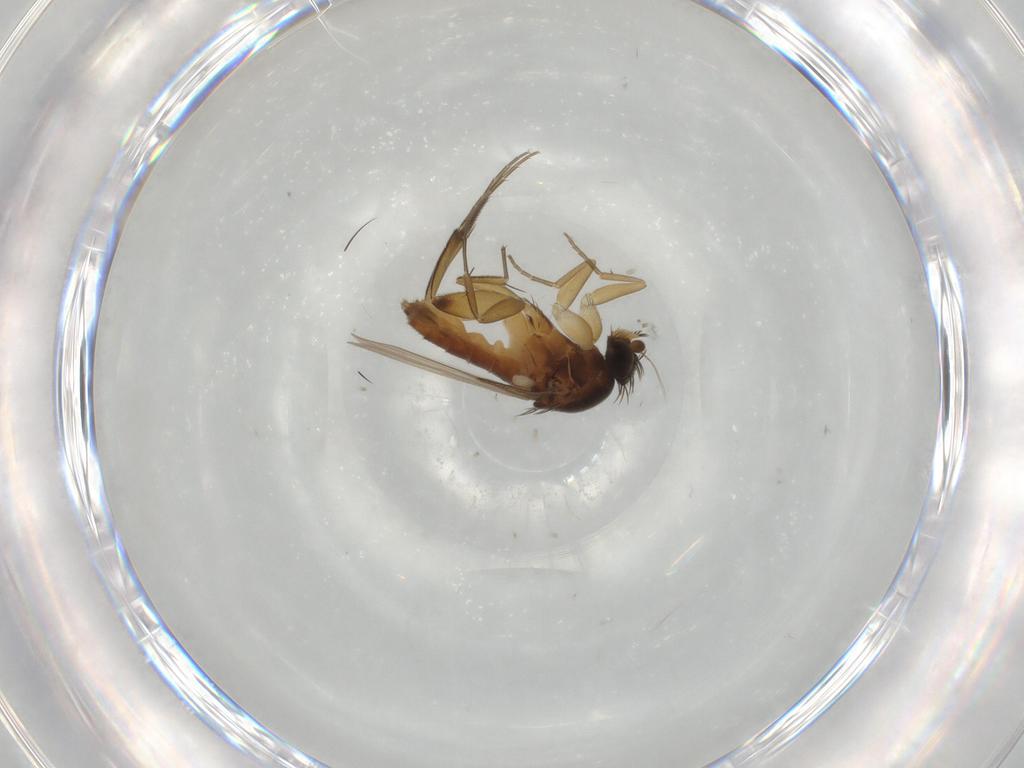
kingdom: Animalia
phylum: Arthropoda
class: Insecta
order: Diptera
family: Phoridae
